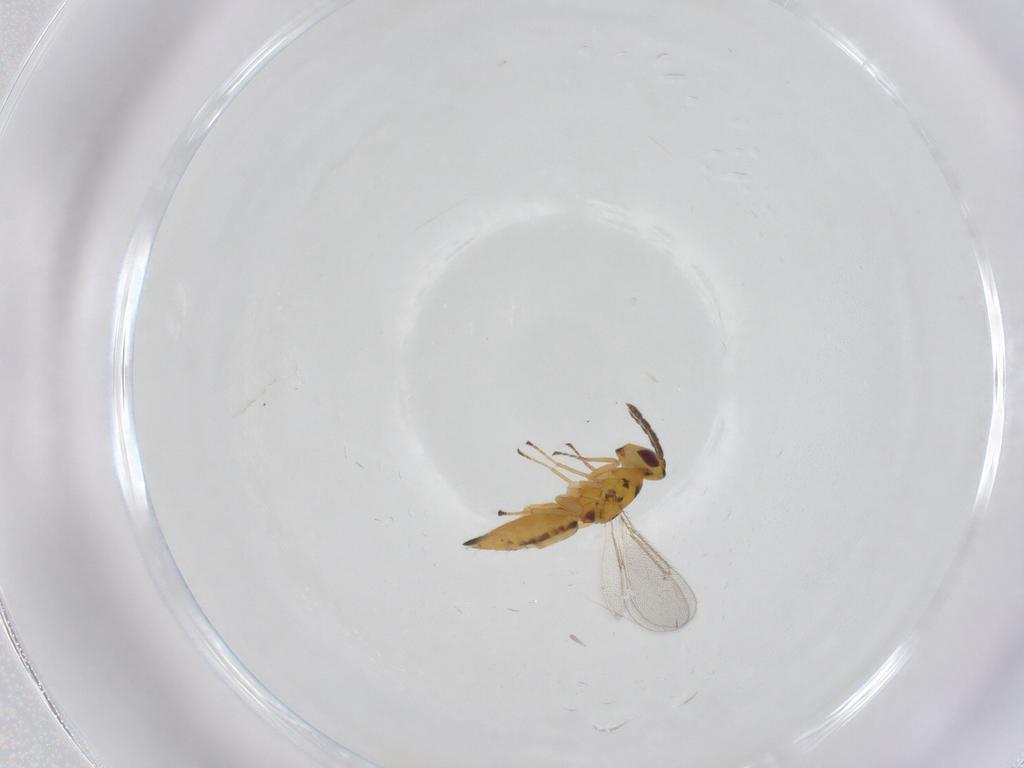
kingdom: Animalia
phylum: Arthropoda
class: Insecta
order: Hymenoptera
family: Eulophidae
